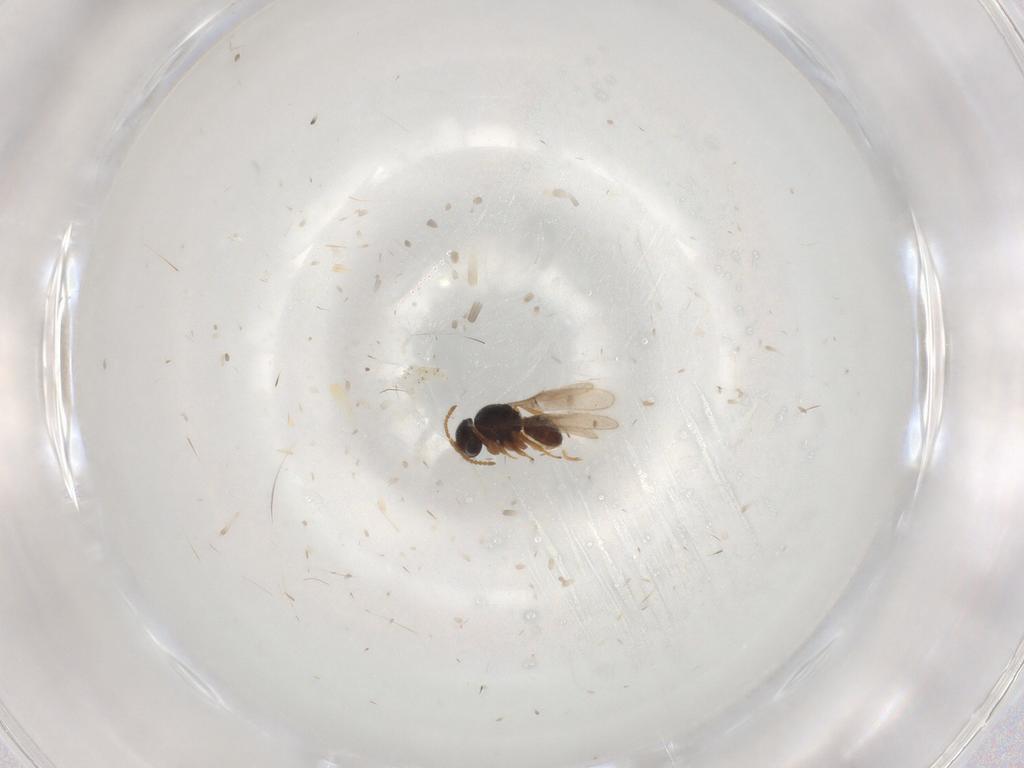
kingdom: Animalia
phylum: Arthropoda
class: Insecta
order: Hymenoptera
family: Scelionidae
